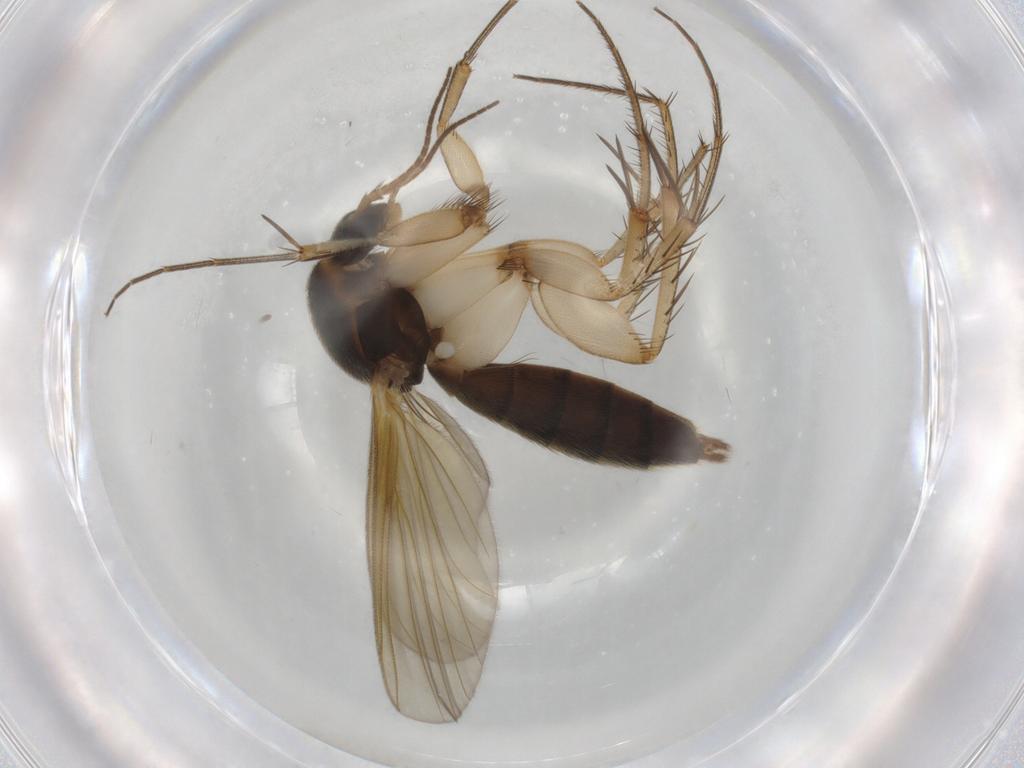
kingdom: Animalia
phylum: Arthropoda
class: Insecta
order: Diptera
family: Mycetophilidae
